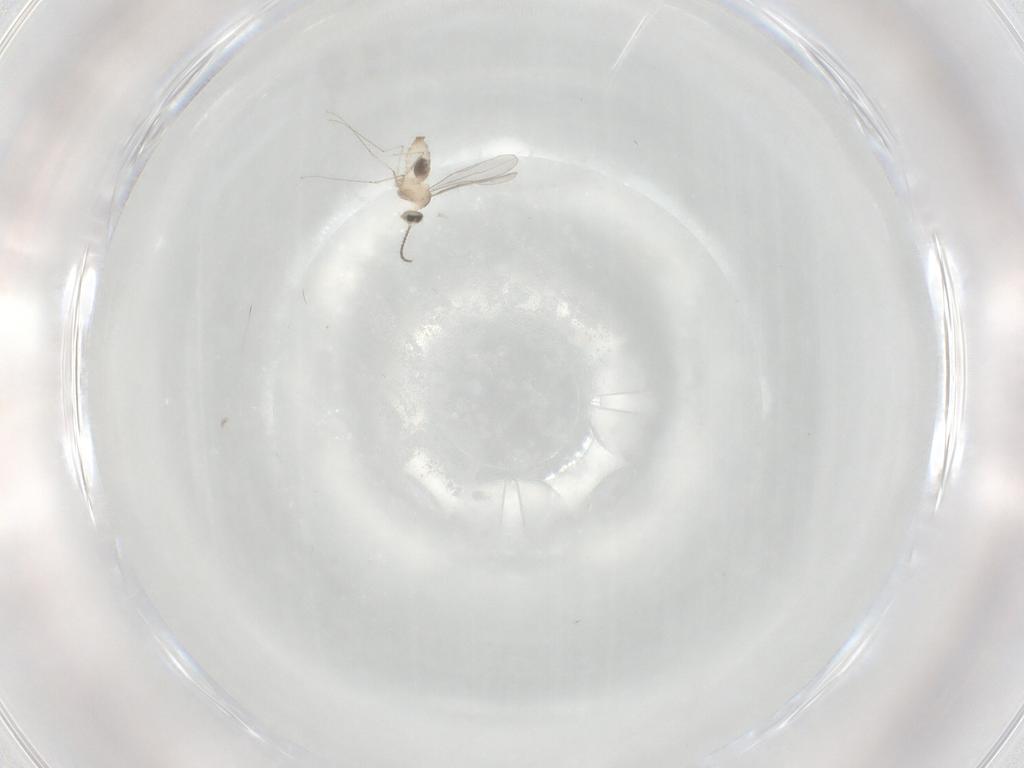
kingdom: Animalia
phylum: Arthropoda
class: Insecta
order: Diptera
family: Cecidomyiidae
